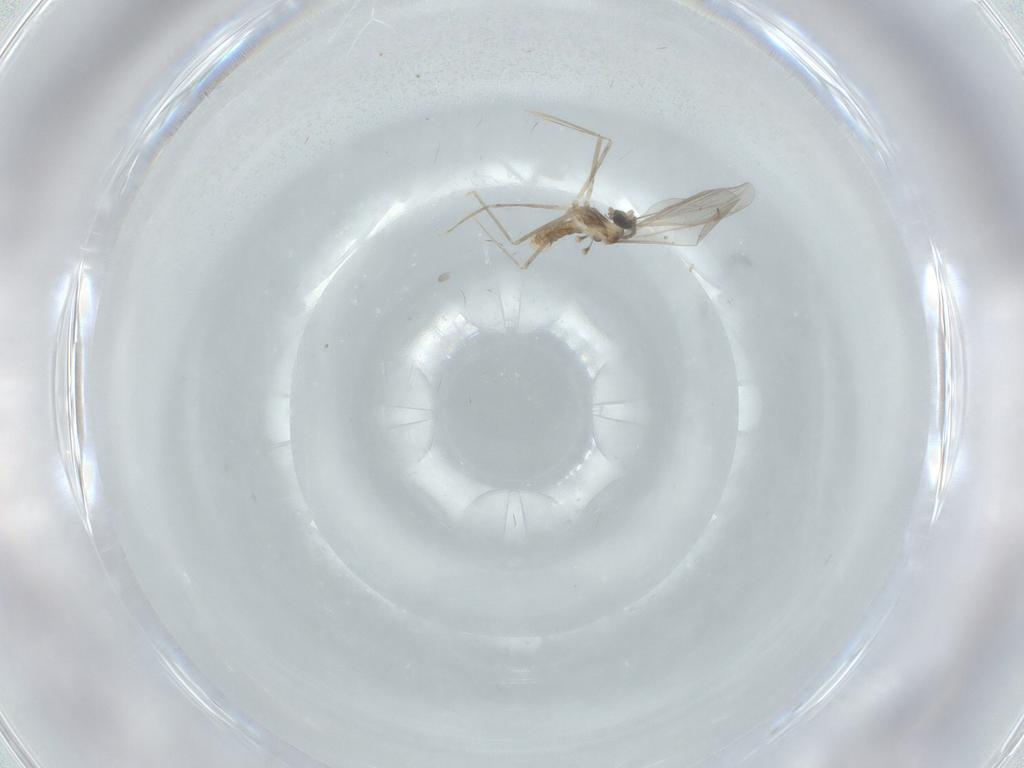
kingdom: Animalia
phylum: Arthropoda
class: Insecta
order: Diptera
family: Cecidomyiidae
